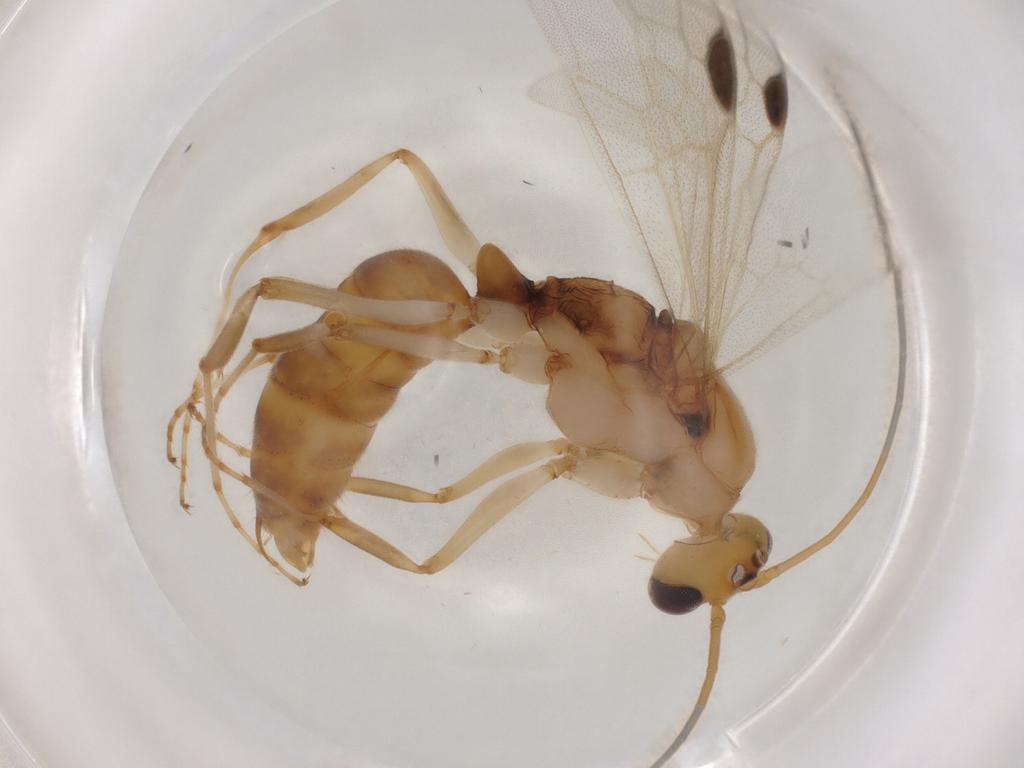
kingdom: Animalia
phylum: Arthropoda
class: Insecta
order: Hymenoptera
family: Formicidae
